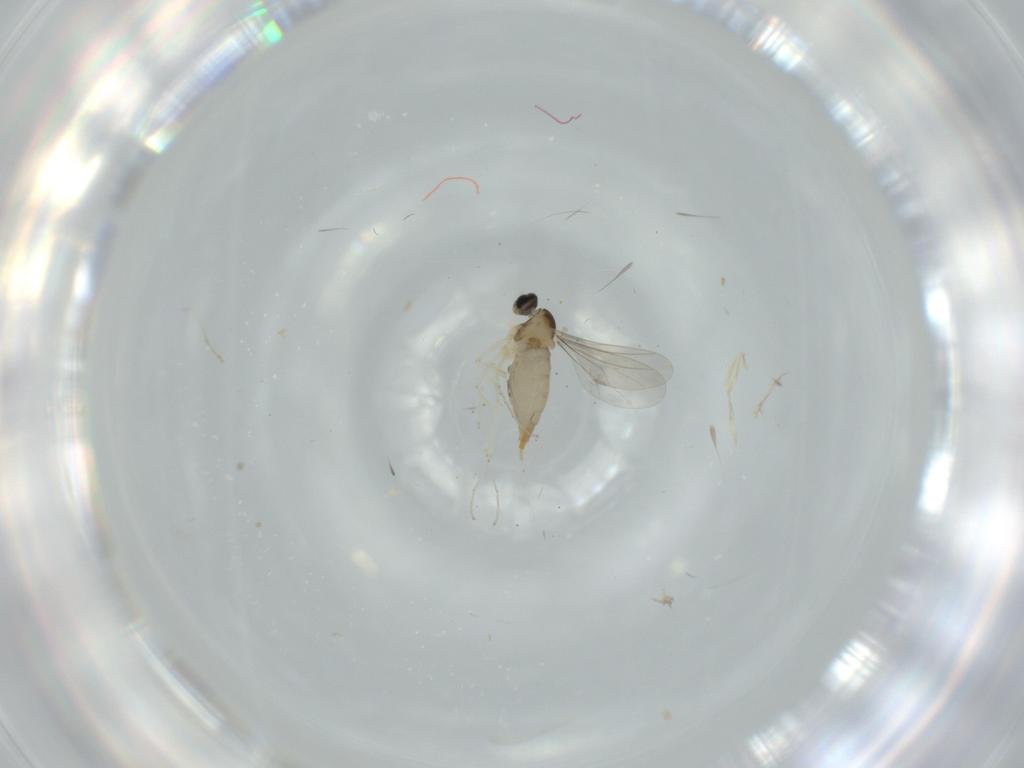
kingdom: Animalia
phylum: Arthropoda
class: Insecta
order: Diptera
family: Cecidomyiidae
